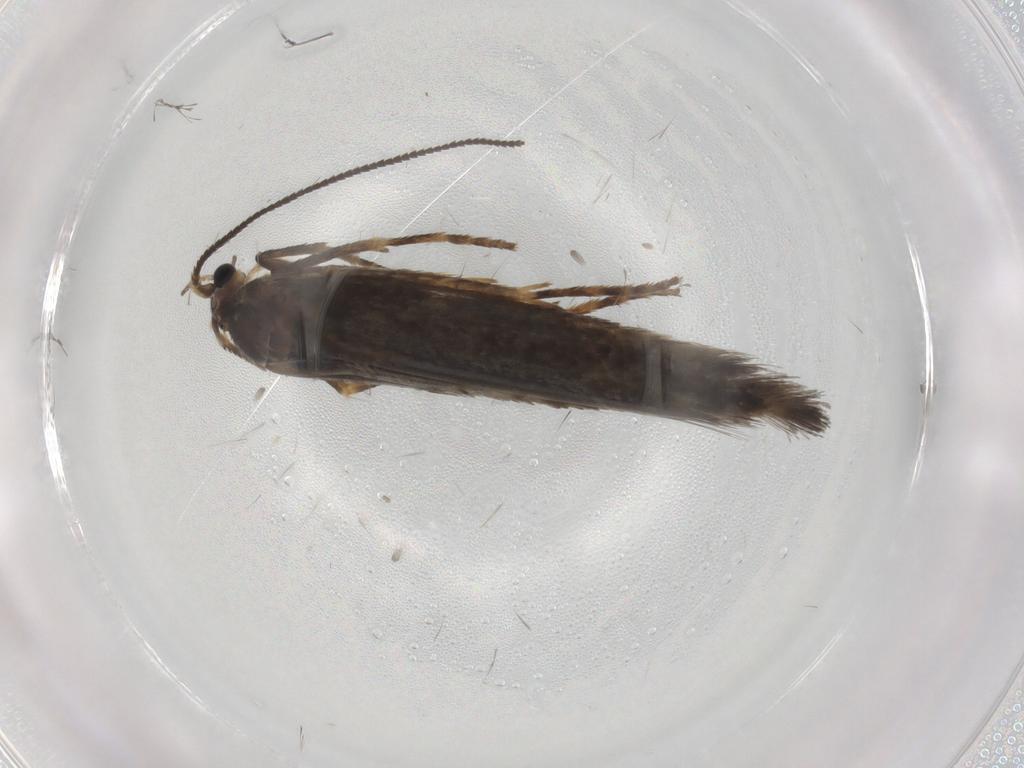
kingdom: Animalia
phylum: Arthropoda
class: Insecta
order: Lepidoptera
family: Nepticulidae
